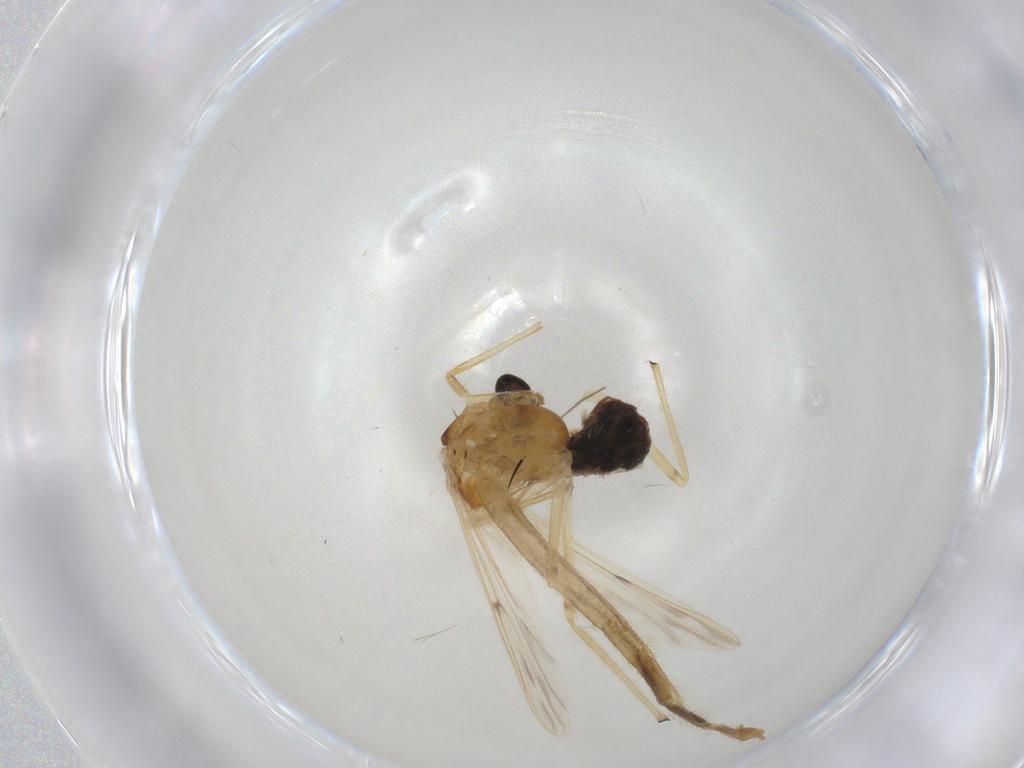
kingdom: Animalia
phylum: Arthropoda
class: Insecta
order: Diptera
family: Chironomidae
